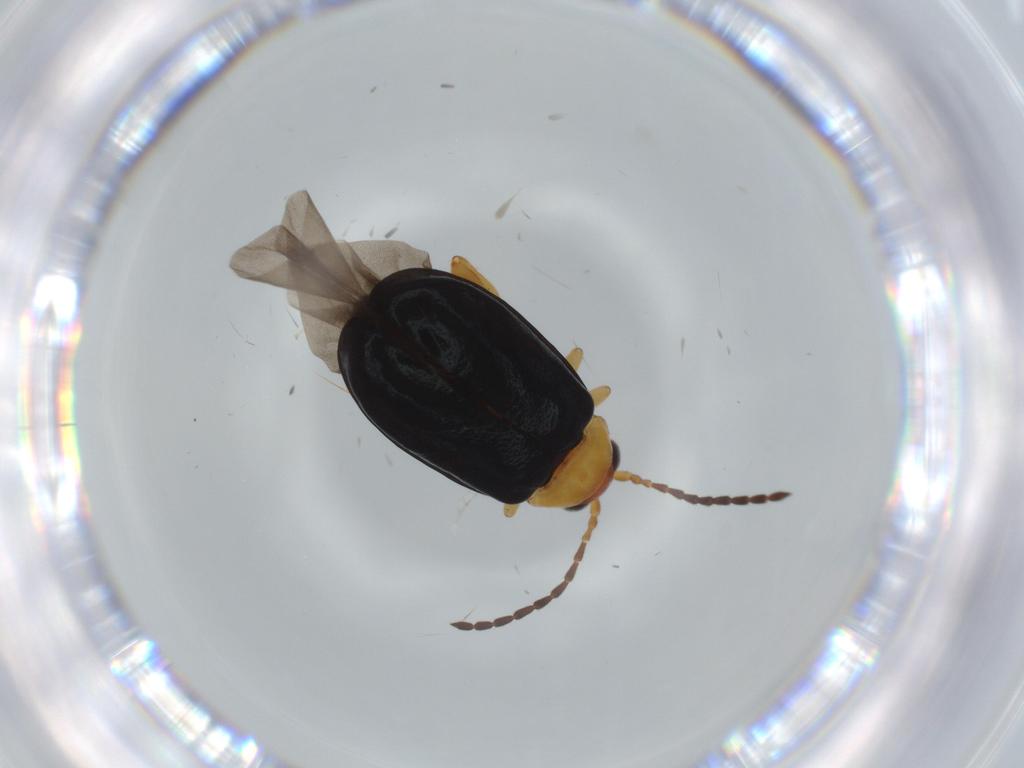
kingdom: Animalia
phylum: Arthropoda
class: Insecta
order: Coleoptera
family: Chrysomelidae
